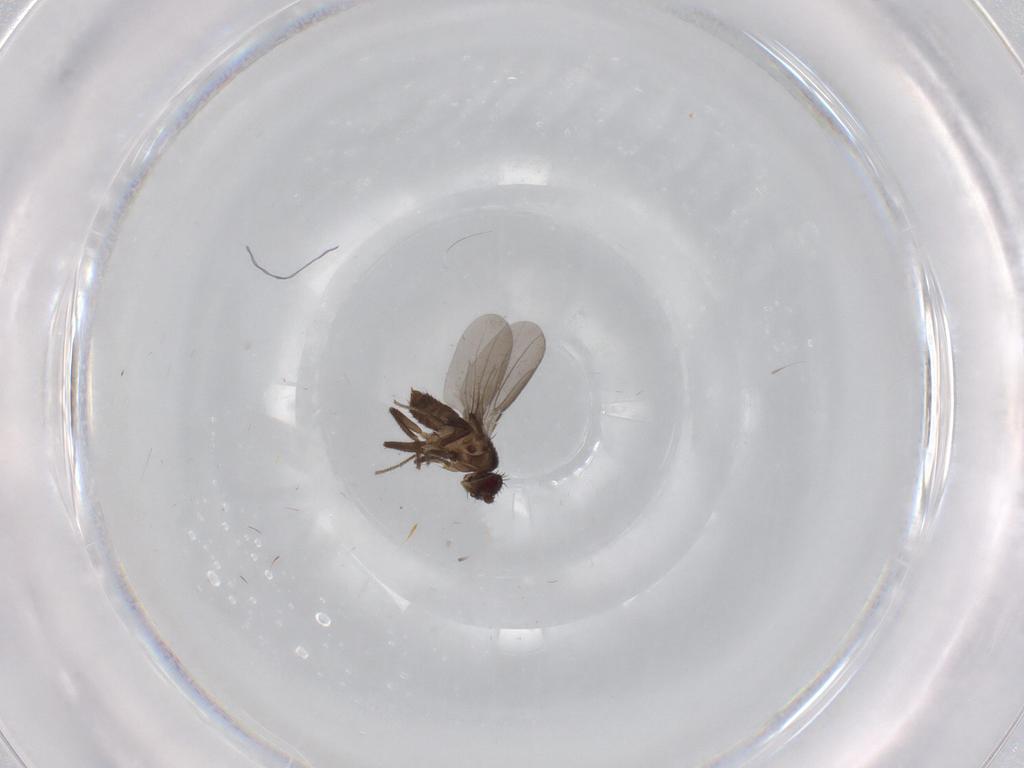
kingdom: Animalia
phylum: Arthropoda
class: Insecta
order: Diptera
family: Sphaeroceridae
